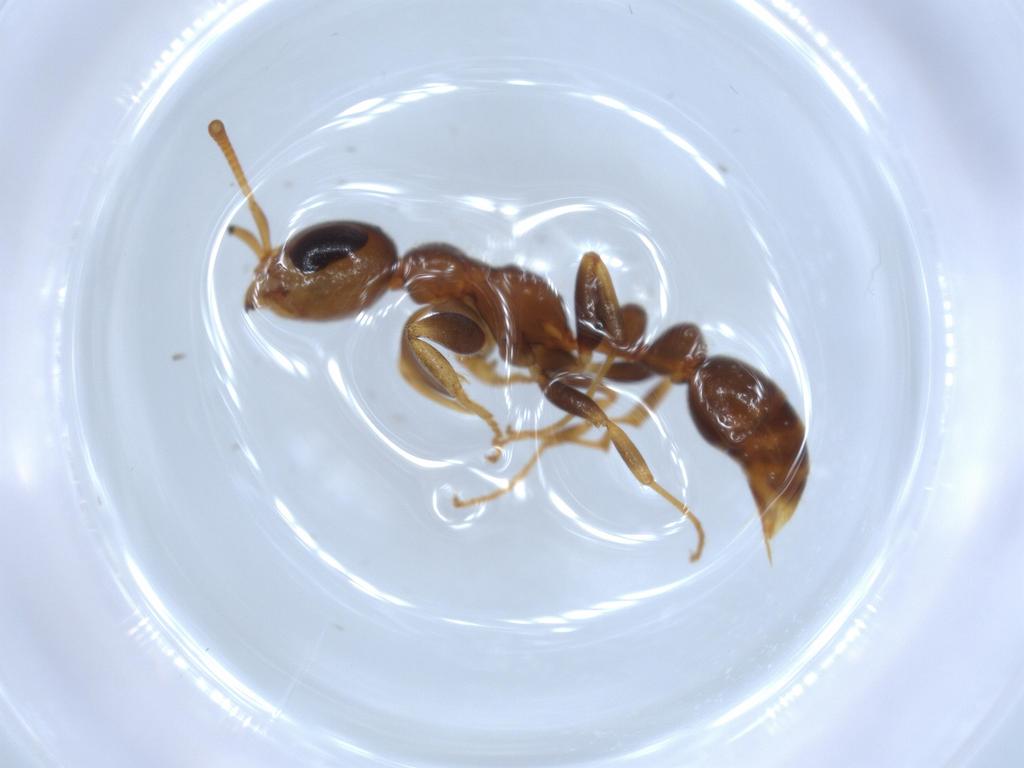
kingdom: Animalia
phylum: Arthropoda
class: Insecta
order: Hymenoptera
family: Formicidae
